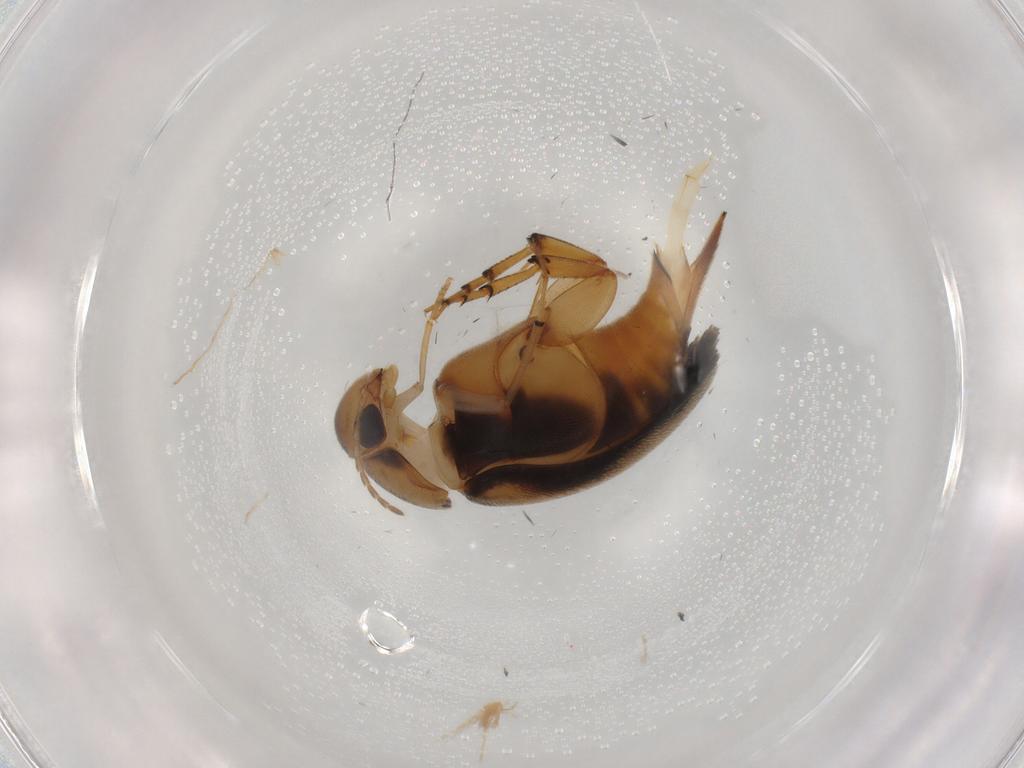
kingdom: Animalia
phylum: Arthropoda
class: Insecta
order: Coleoptera
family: Mordellidae
